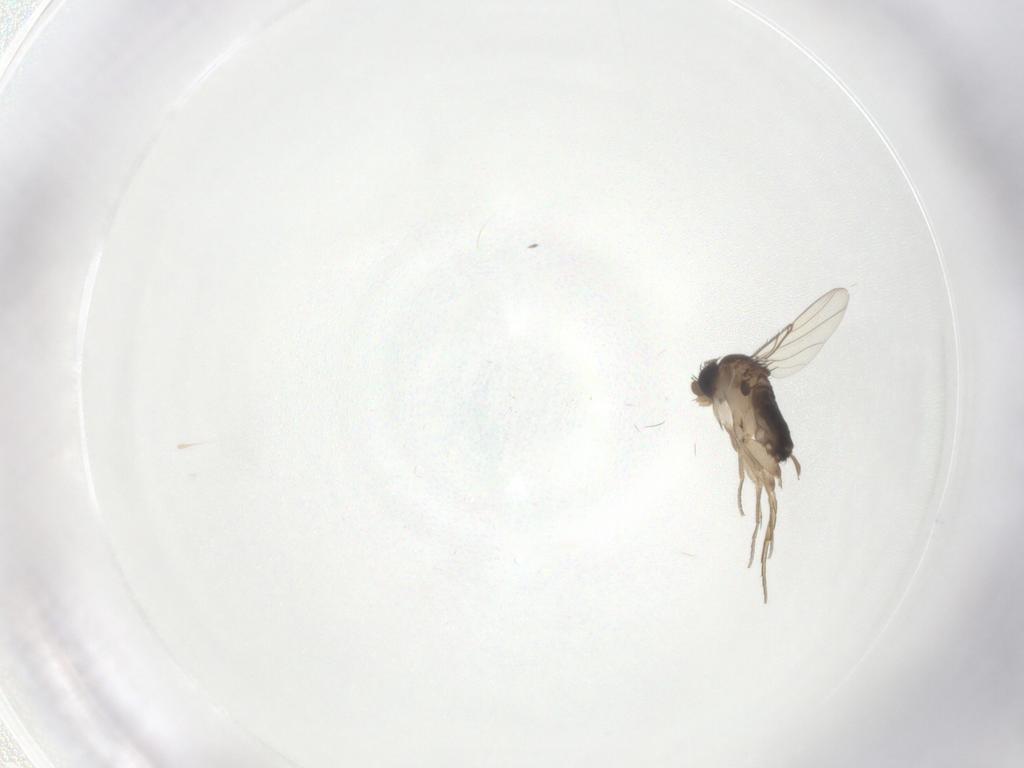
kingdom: Animalia
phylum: Arthropoda
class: Insecta
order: Diptera
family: Phoridae
